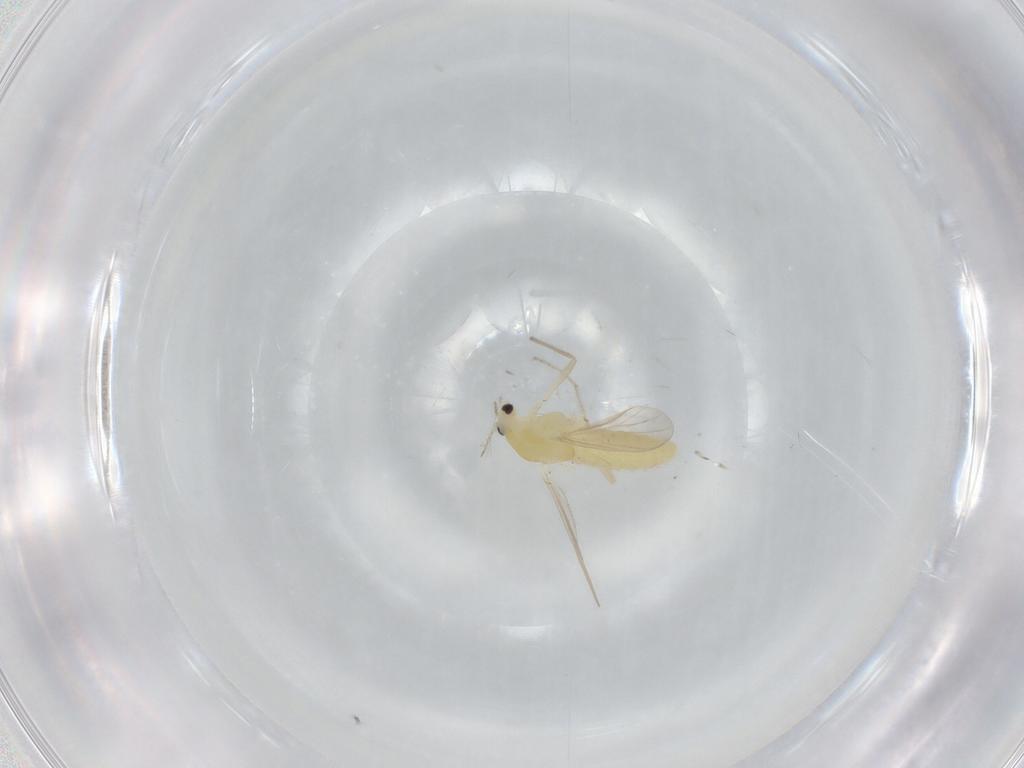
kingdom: Animalia
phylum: Arthropoda
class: Insecta
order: Diptera
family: Chironomidae
